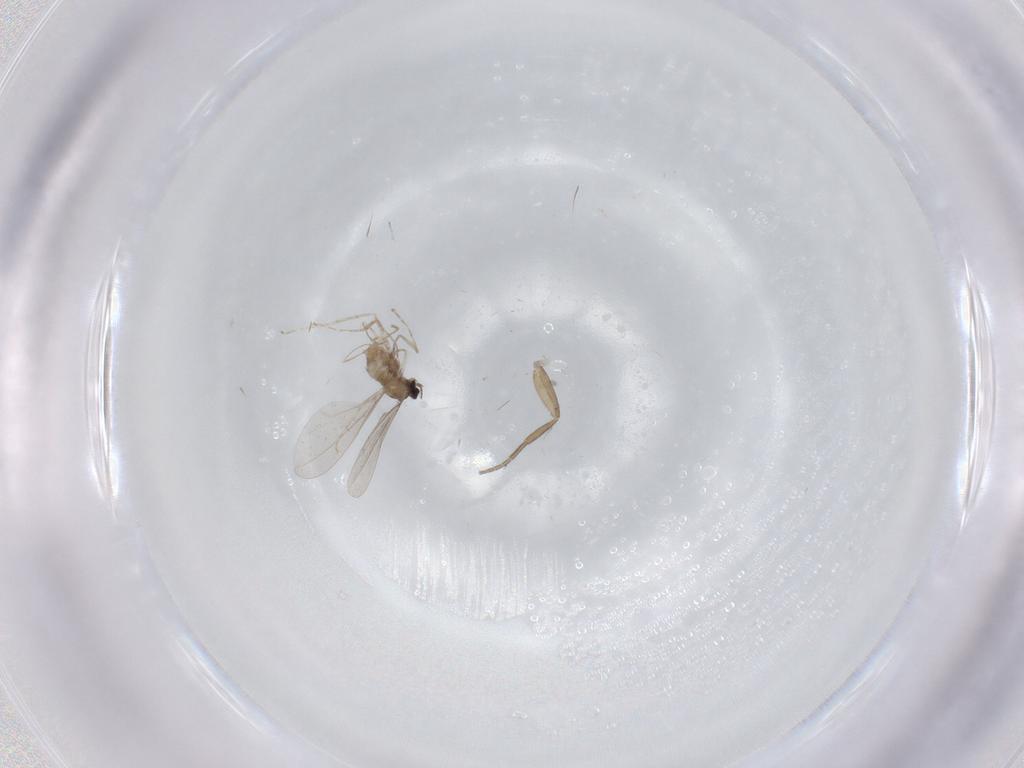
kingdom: Animalia
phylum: Arthropoda
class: Insecta
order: Diptera
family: Cecidomyiidae
